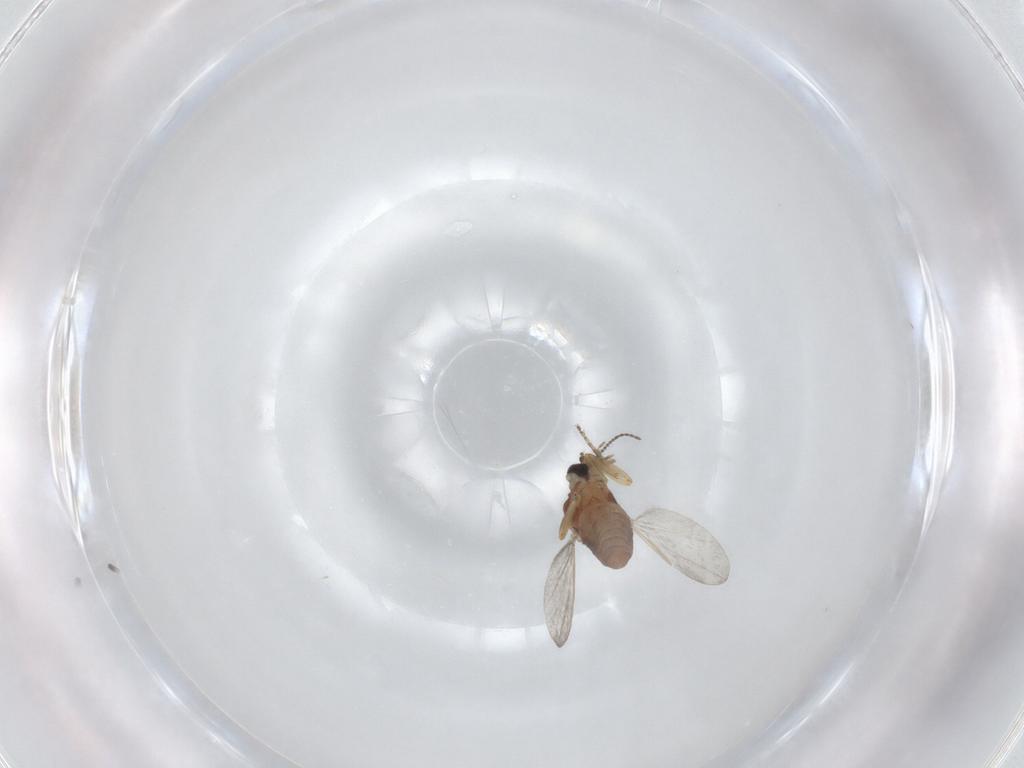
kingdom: Animalia
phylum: Arthropoda
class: Insecta
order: Diptera
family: Ceratopogonidae
